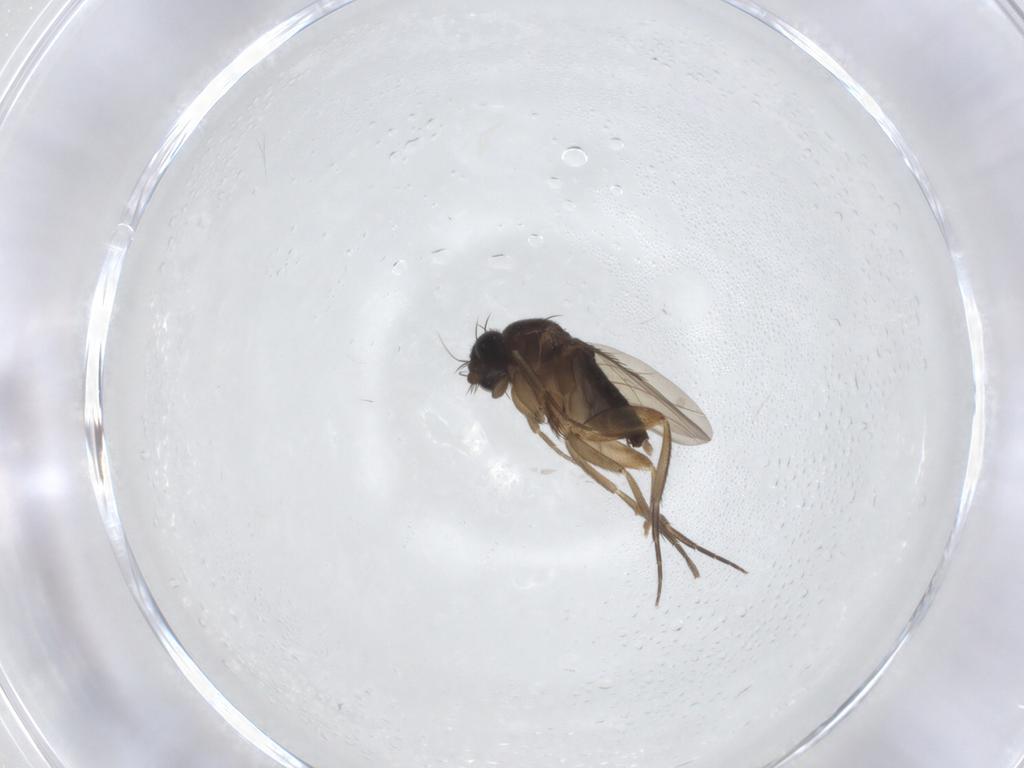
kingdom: Animalia
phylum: Arthropoda
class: Insecta
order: Diptera
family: Phoridae
